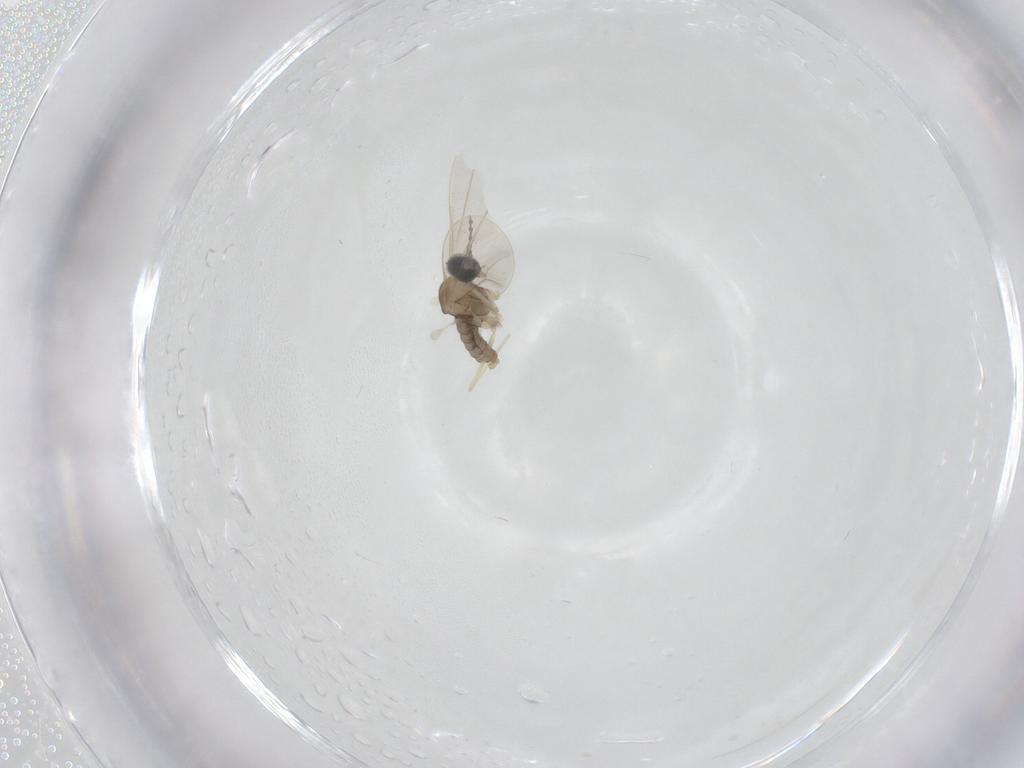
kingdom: Animalia
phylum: Arthropoda
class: Insecta
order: Diptera
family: Cecidomyiidae
